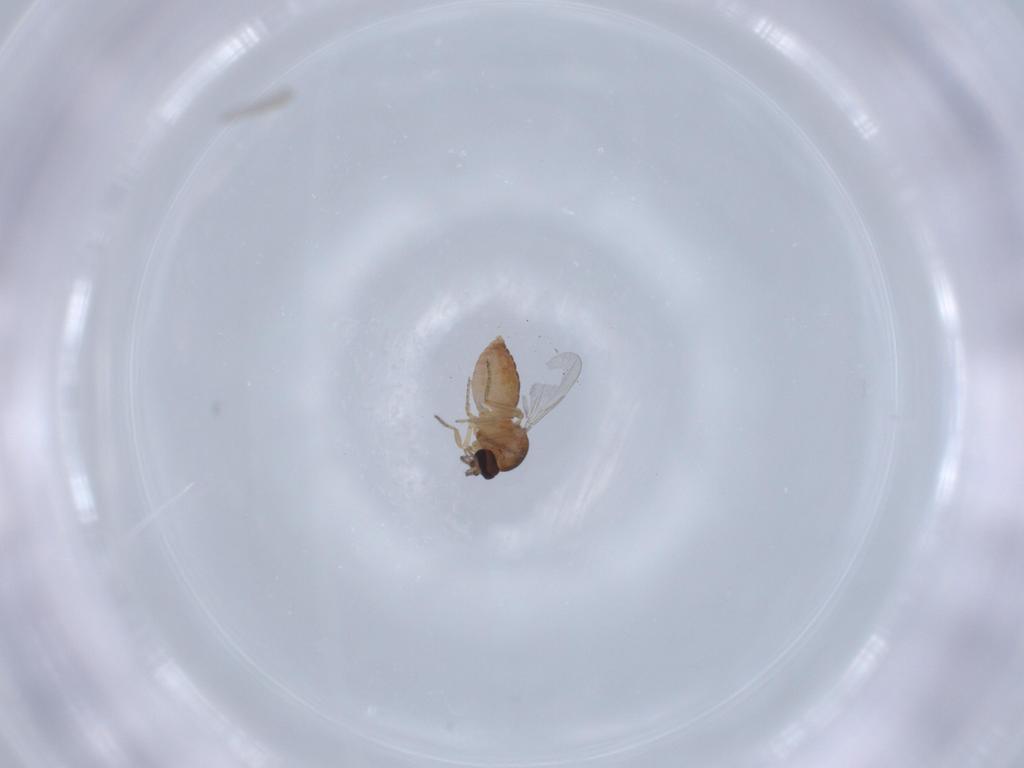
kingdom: Animalia
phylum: Arthropoda
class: Insecta
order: Diptera
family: Ceratopogonidae
